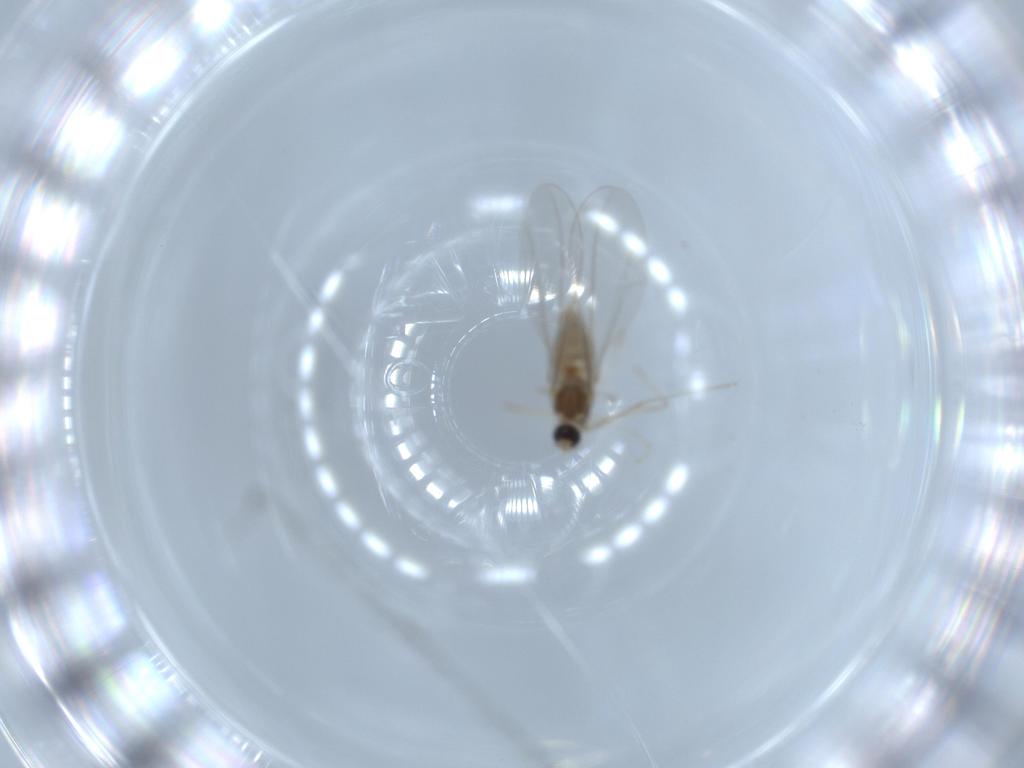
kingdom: Animalia
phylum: Arthropoda
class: Insecta
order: Diptera
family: Cecidomyiidae
